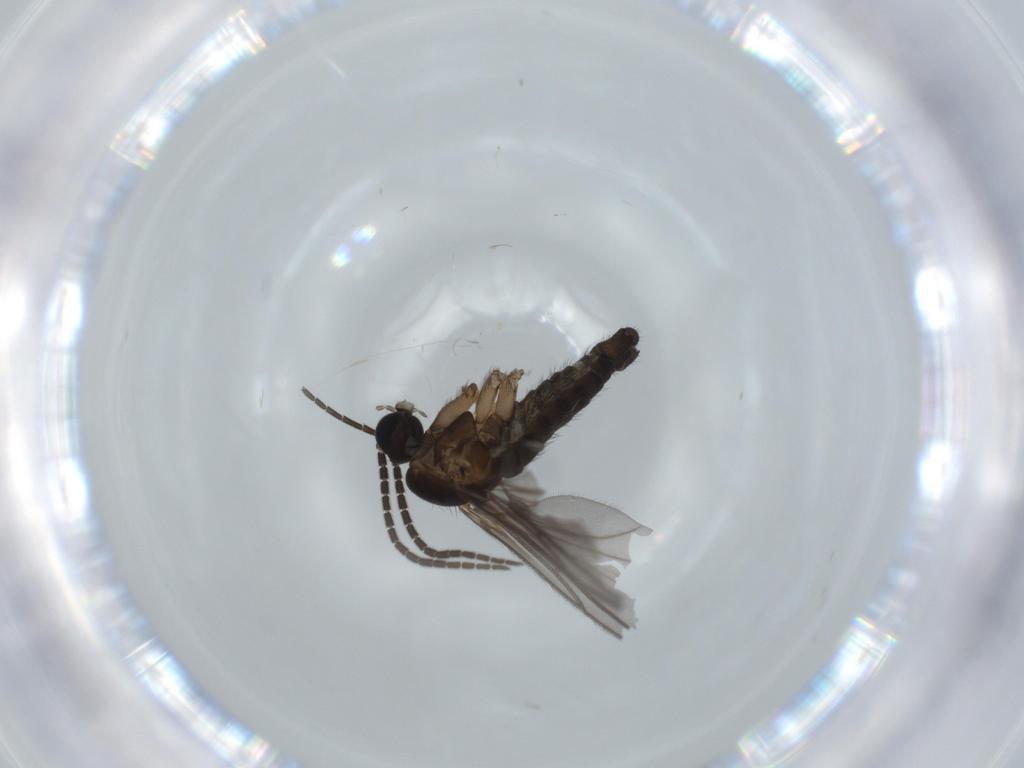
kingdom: Animalia
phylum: Arthropoda
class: Insecta
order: Diptera
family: Sciaridae
